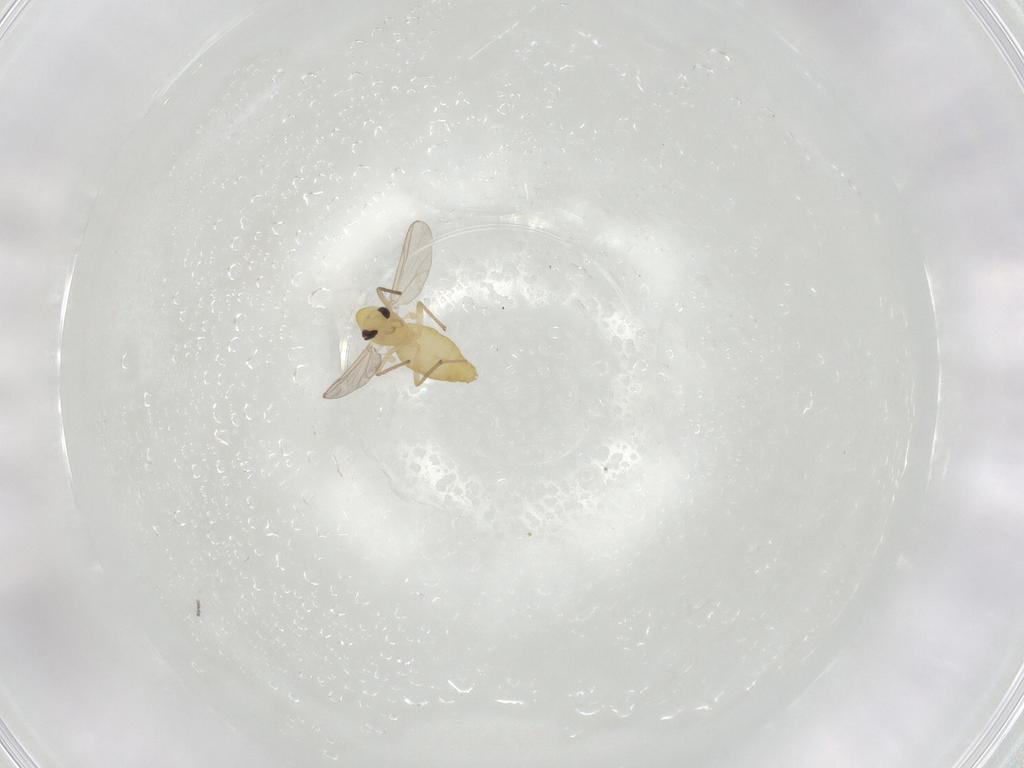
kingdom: Animalia
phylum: Arthropoda
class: Insecta
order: Diptera
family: Chironomidae
